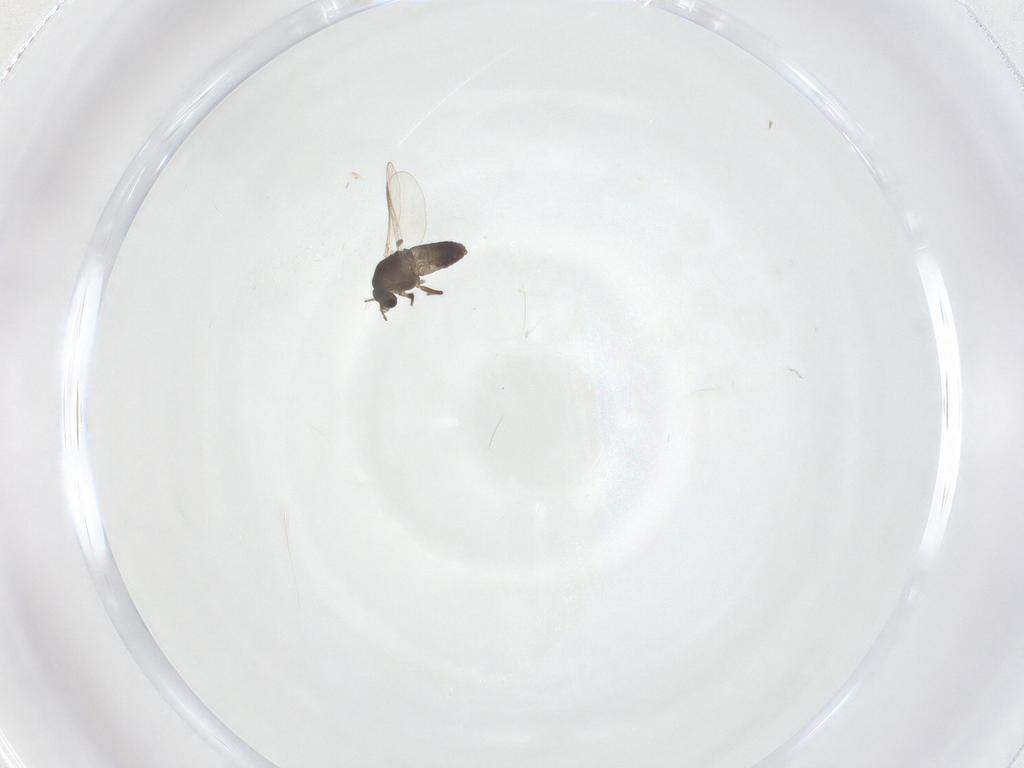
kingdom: Animalia
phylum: Arthropoda
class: Insecta
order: Diptera
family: Chironomidae
